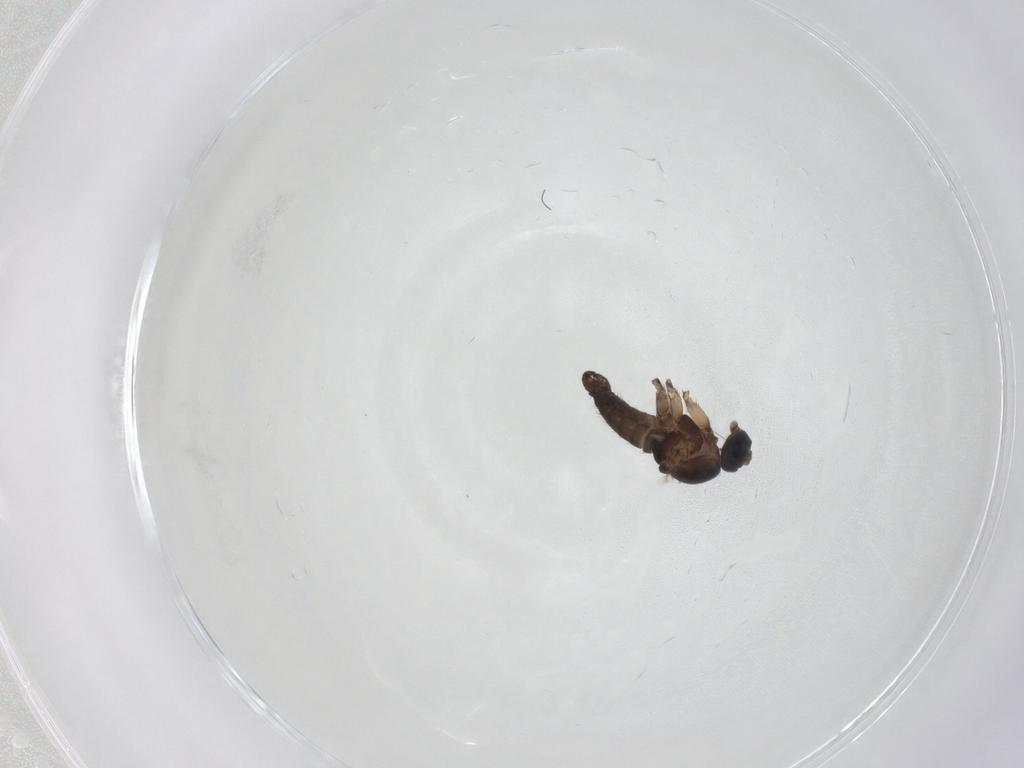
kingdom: Animalia
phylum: Arthropoda
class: Insecta
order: Diptera
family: Sciaridae
